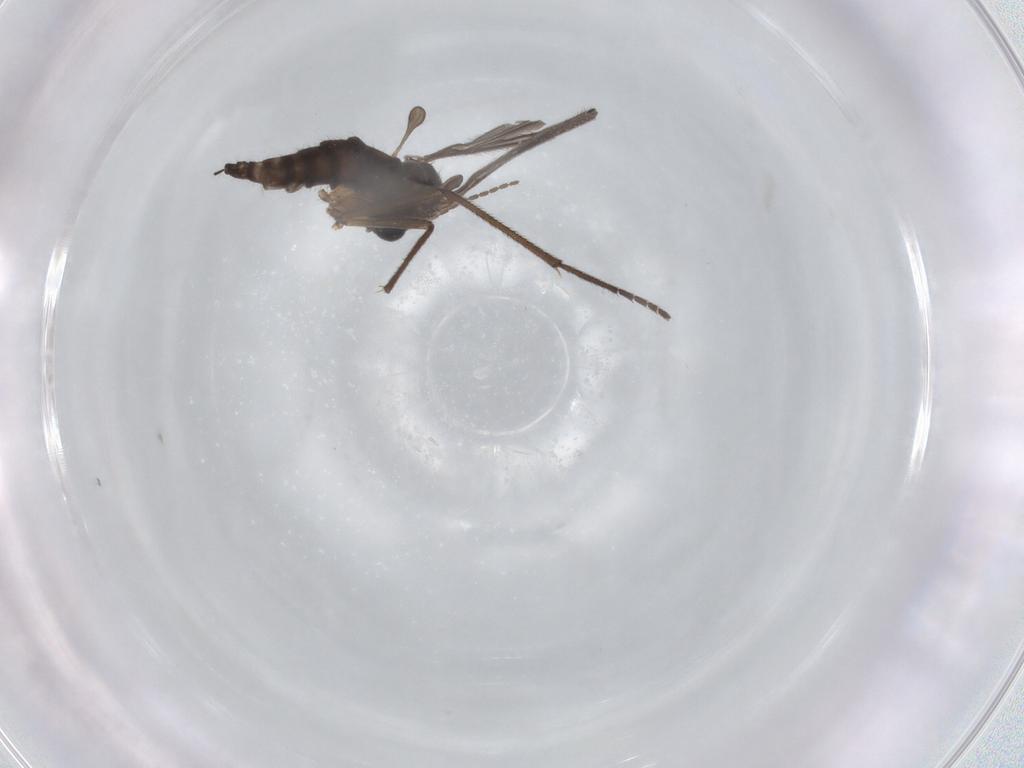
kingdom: Animalia
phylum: Arthropoda
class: Insecta
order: Diptera
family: Sciaridae
